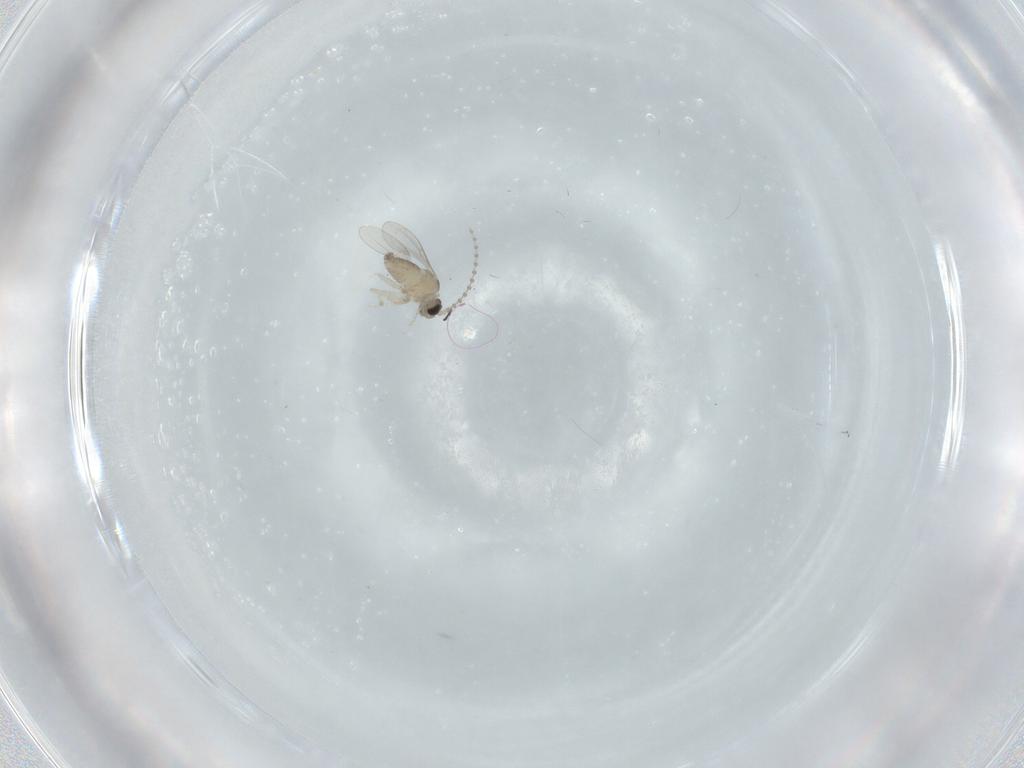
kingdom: Animalia
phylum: Arthropoda
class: Insecta
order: Diptera
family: Cecidomyiidae
